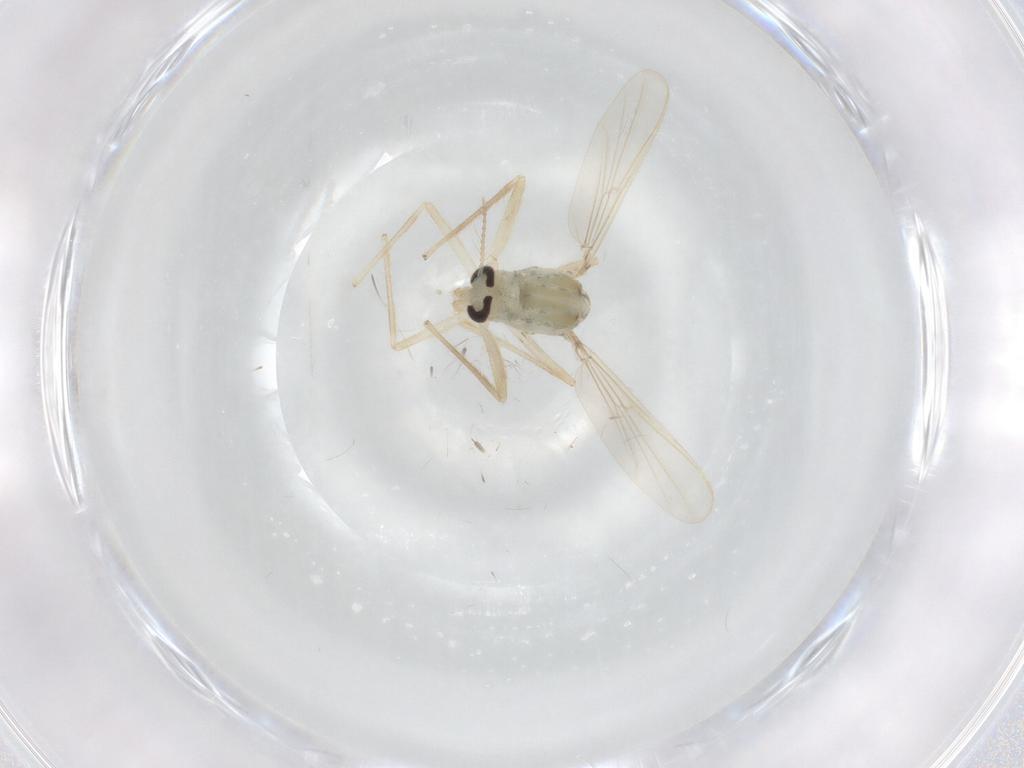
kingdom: Animalia
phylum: Arthropoda
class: Insecta
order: Diptera
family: Chironomidae
